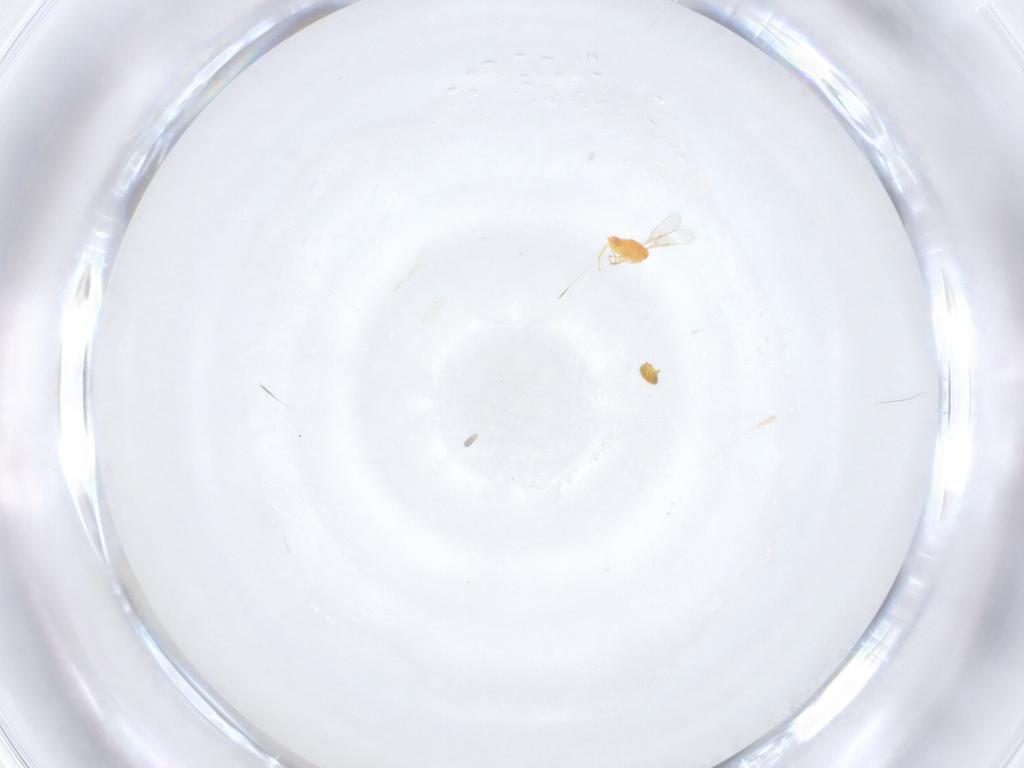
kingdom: Animalia
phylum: Arthropoda
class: Insecta
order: Hymenoptera
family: Aphelinidae
